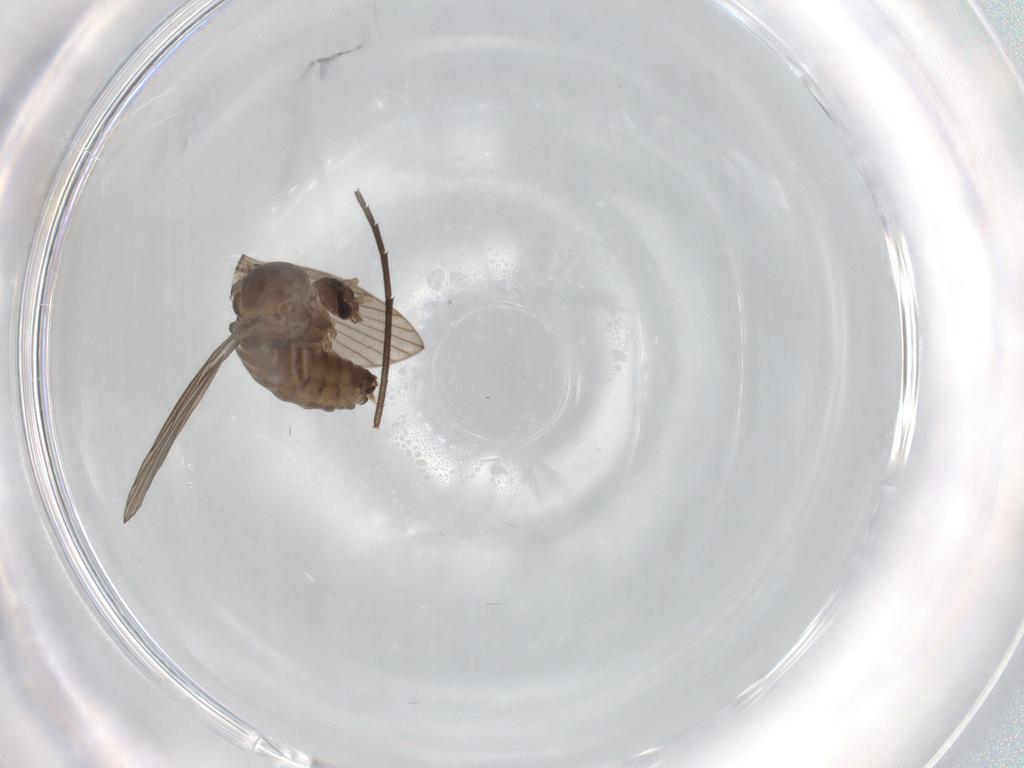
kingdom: Animalia
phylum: Arthropoda
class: Insecta
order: Diptera
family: Psychodidae
